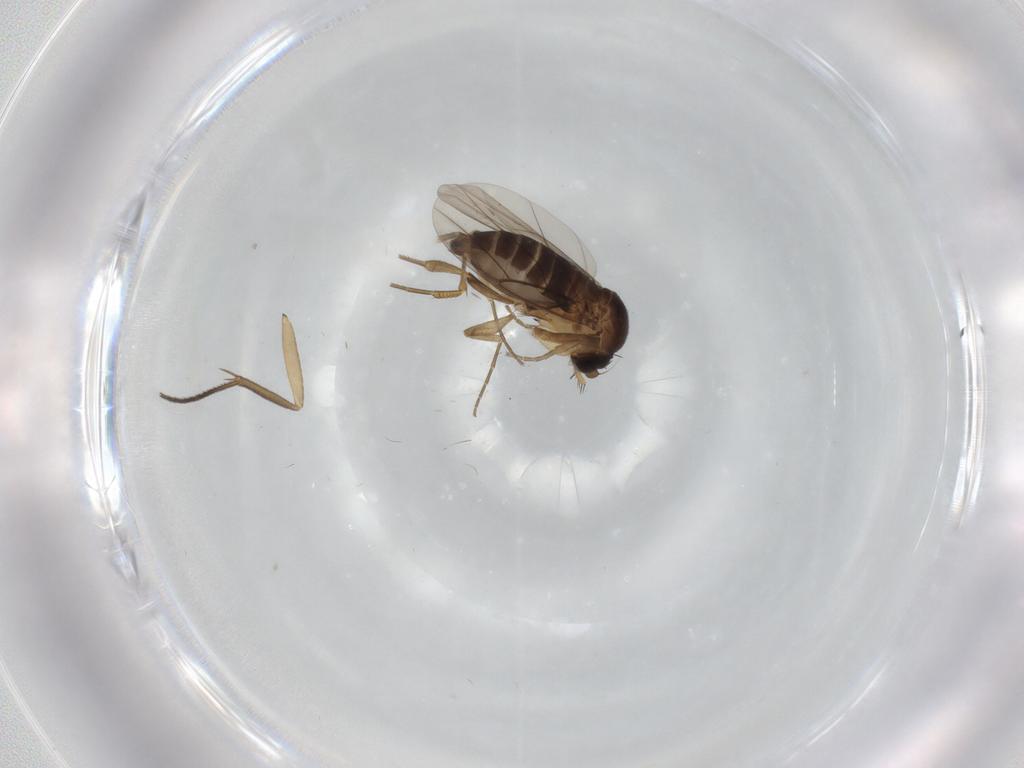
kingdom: Animalia
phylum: Arthropoda
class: Insecta
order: Diptera
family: Phoridae
